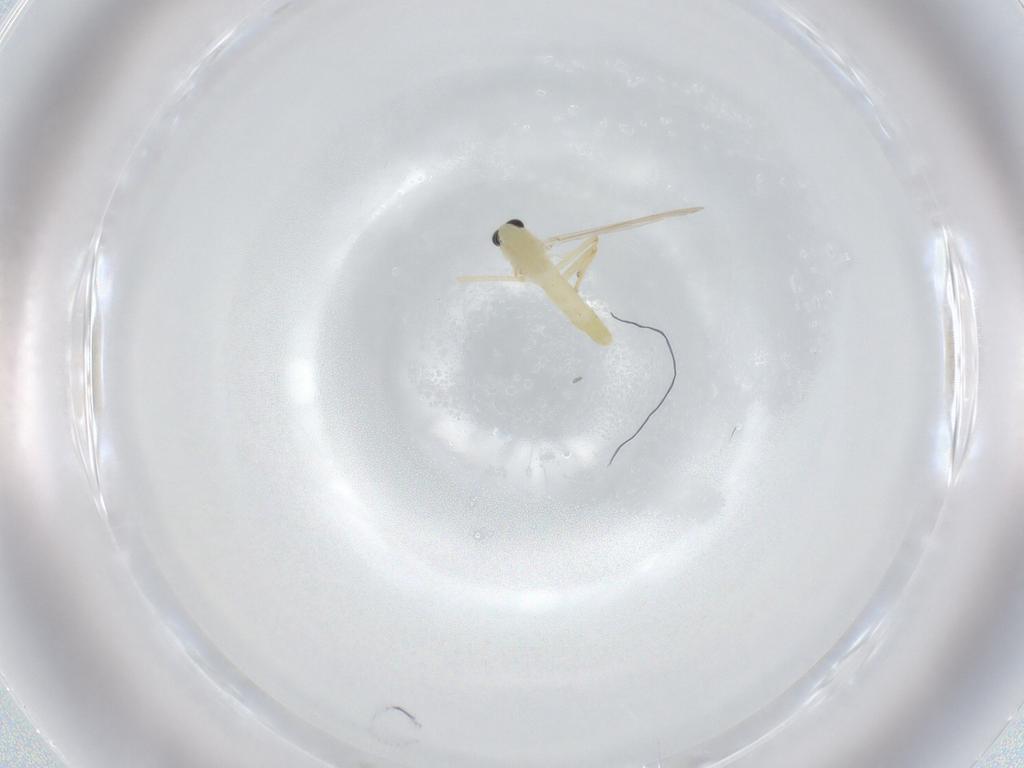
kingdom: Animalia
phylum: Arthropoda
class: Insecta
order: Diptera
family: Chironomidae
